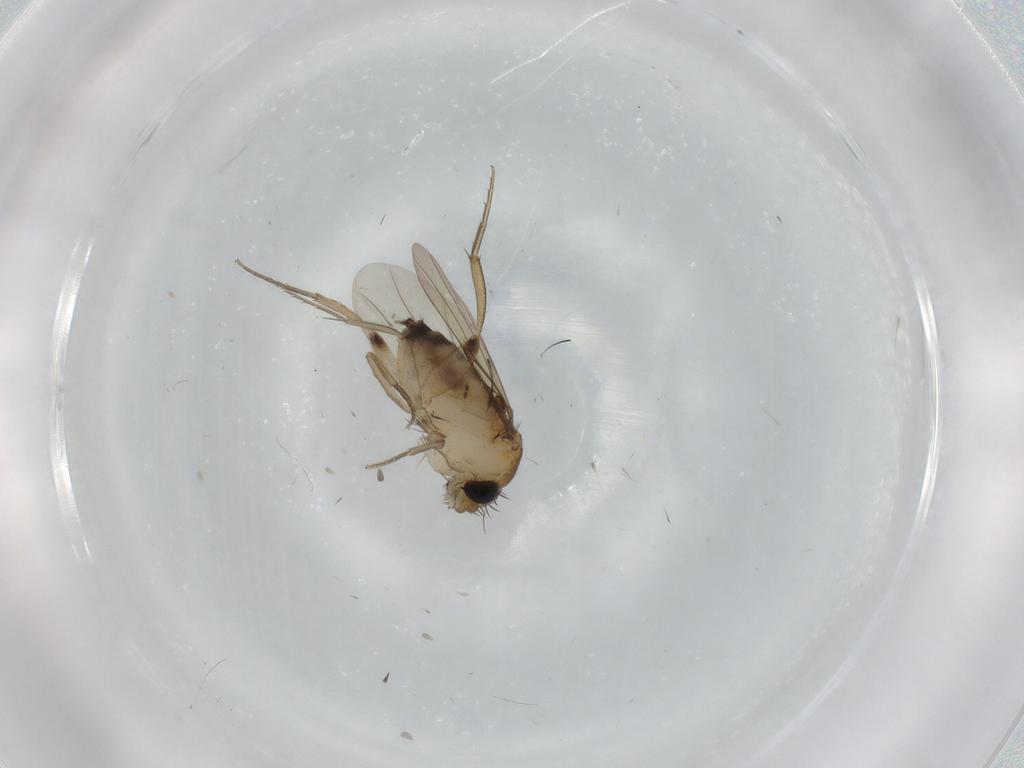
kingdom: Animalia
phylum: Arthropoda
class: Insecta
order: Diptera
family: Phoridae
